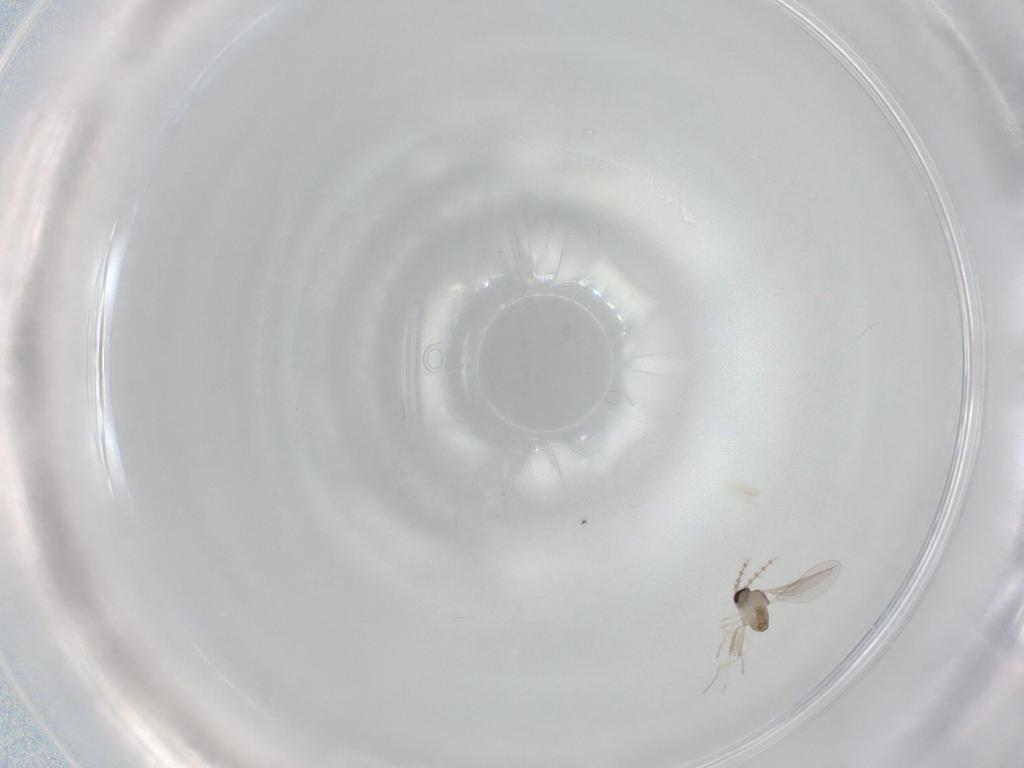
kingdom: Animalia
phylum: Arthropoda
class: Insecta
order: Diptera
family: Cecidomyiidae
